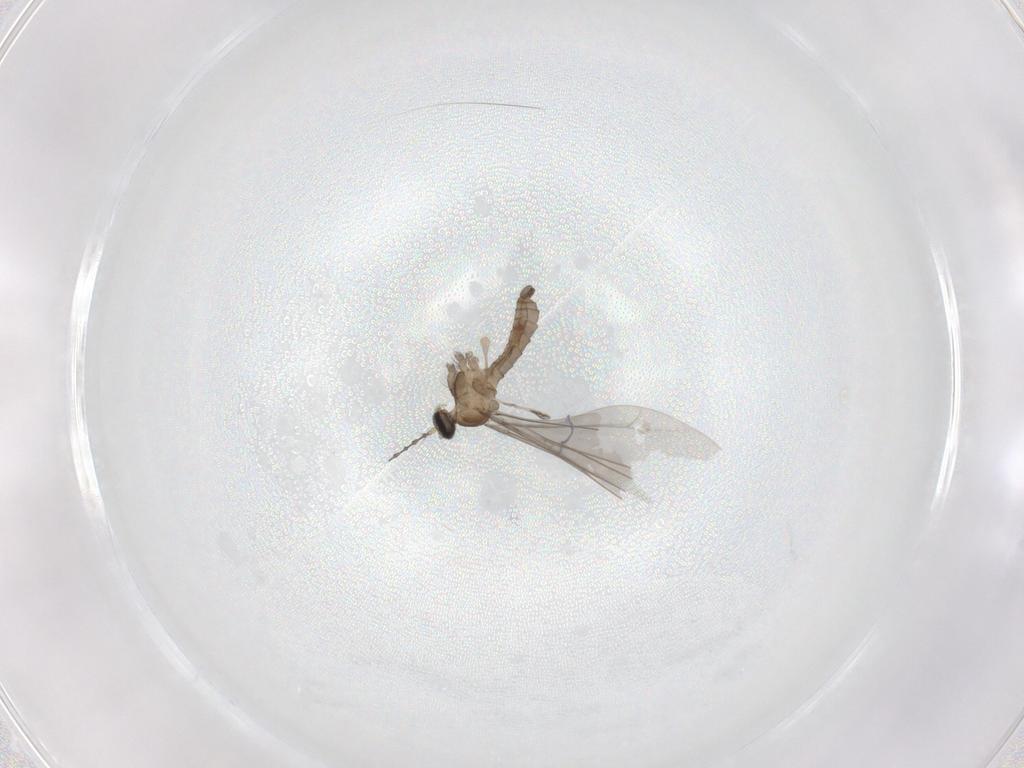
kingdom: Animalia
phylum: Arthropoda
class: Insecta
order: Diptera
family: Cecidomyiidae
